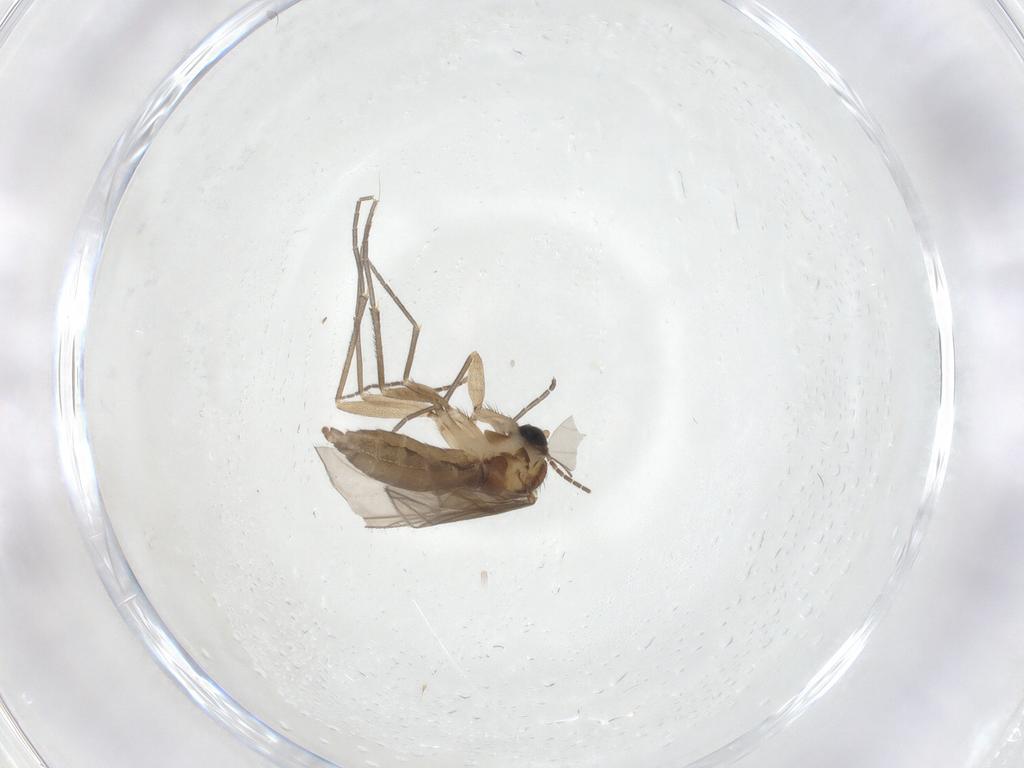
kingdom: Animalia
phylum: Arthropoda
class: Insecta
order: Diptera
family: Sciaridae
